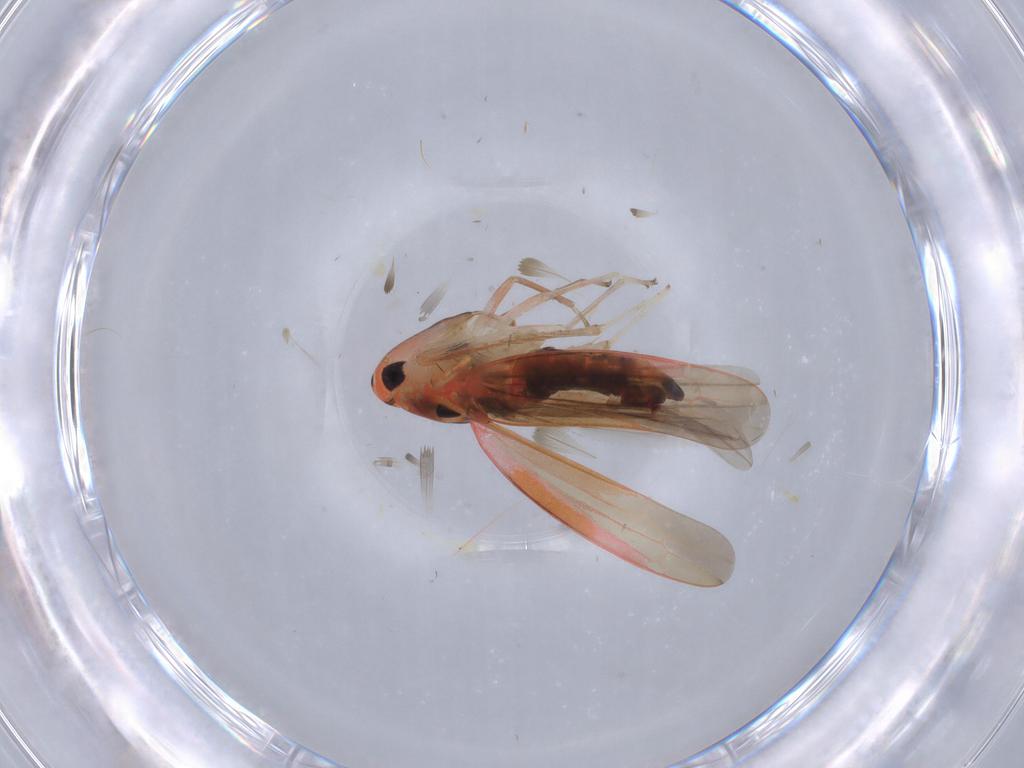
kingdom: Animalia
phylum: Arthropoda
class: Insecta
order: Hemiptera
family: Cicadellidae
